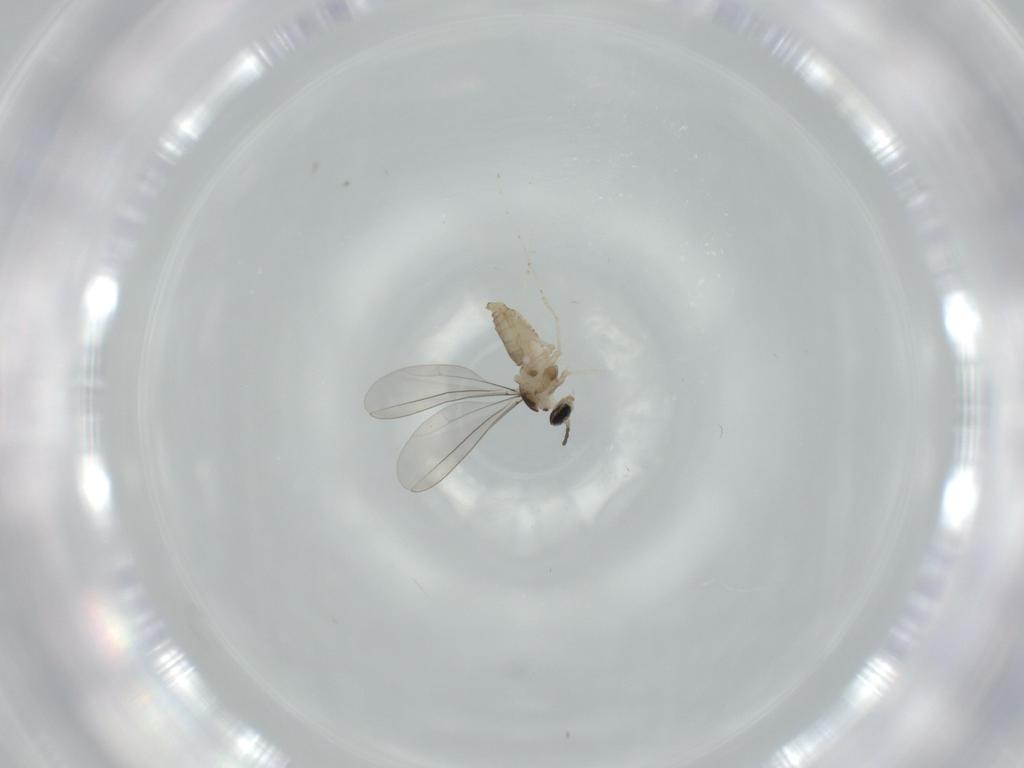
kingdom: Animalia
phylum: Arthropoda
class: Insecta
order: Diptera
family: Cecidomyiidae
